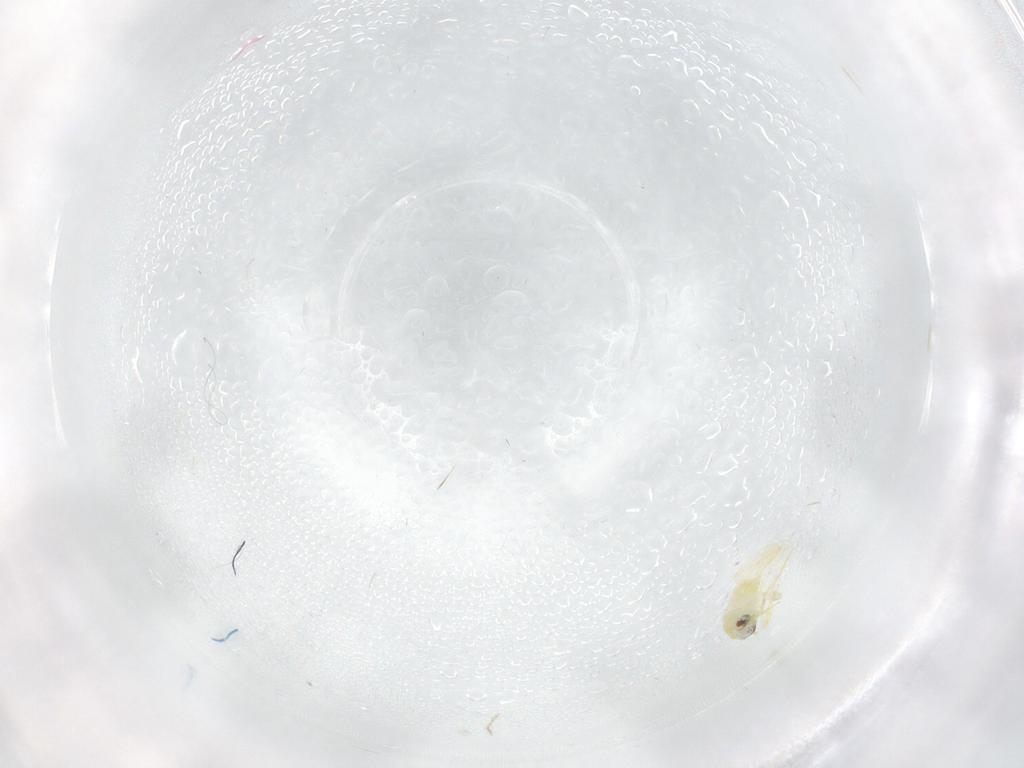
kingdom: Animalia
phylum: Arthropoda
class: Insecta
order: Hemiptera
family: Aleyrodidae
